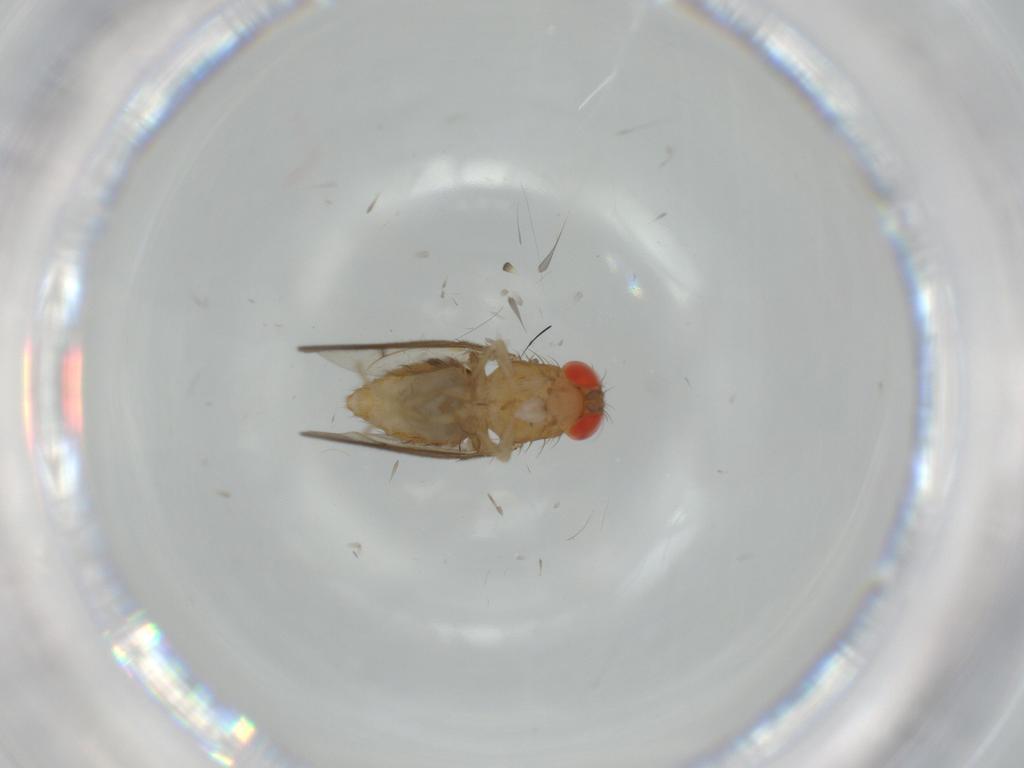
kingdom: Animalia
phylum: Arthropoda
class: Insecta
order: Diptera
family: Drosophilidae
